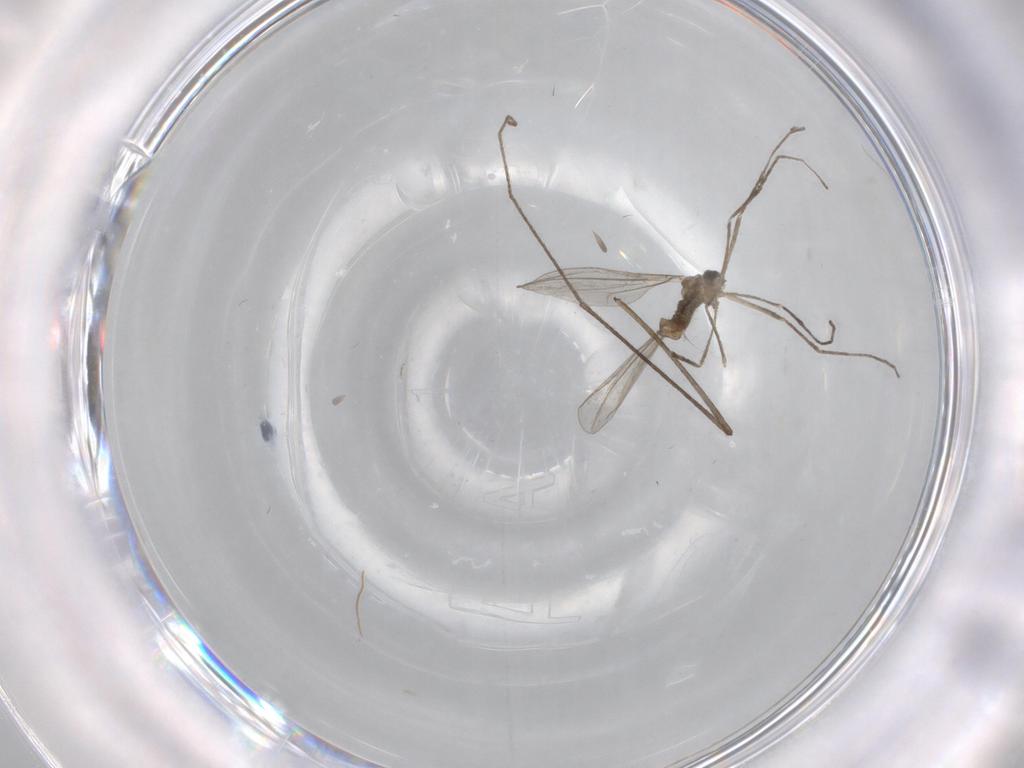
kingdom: Animalia
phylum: Arthropoda
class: Insecta
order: Diptera
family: Cecidomyiidae
